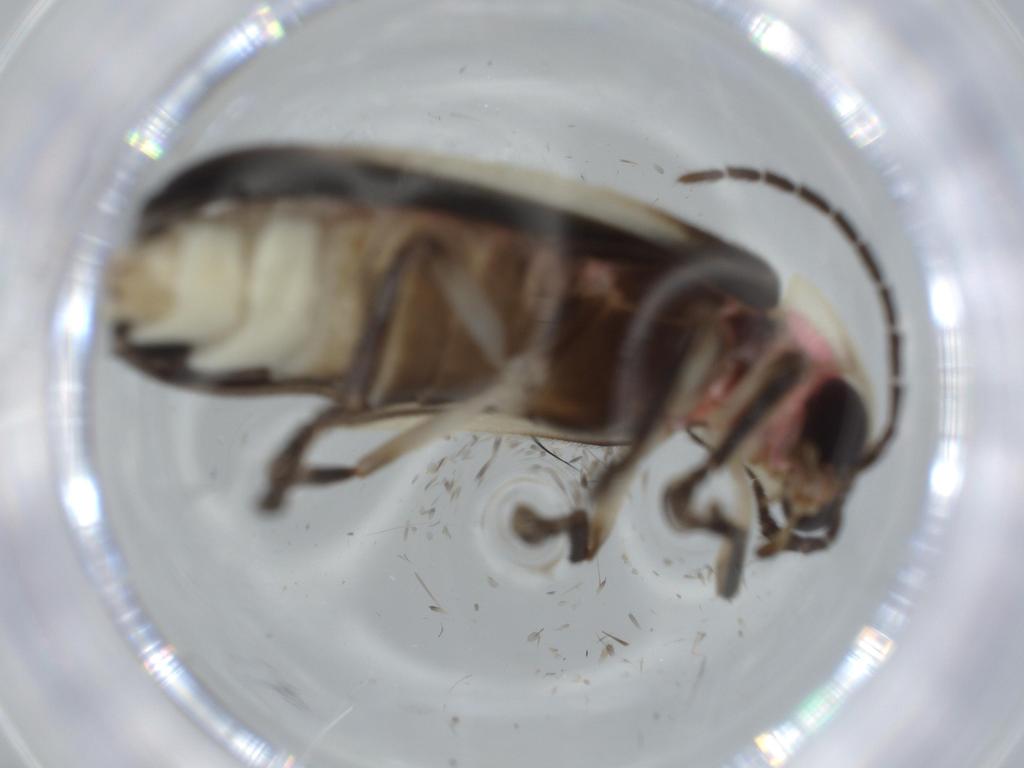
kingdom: Animalia
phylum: Arthropoda
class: Insecta
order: Coleoptera
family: Lampyridae
